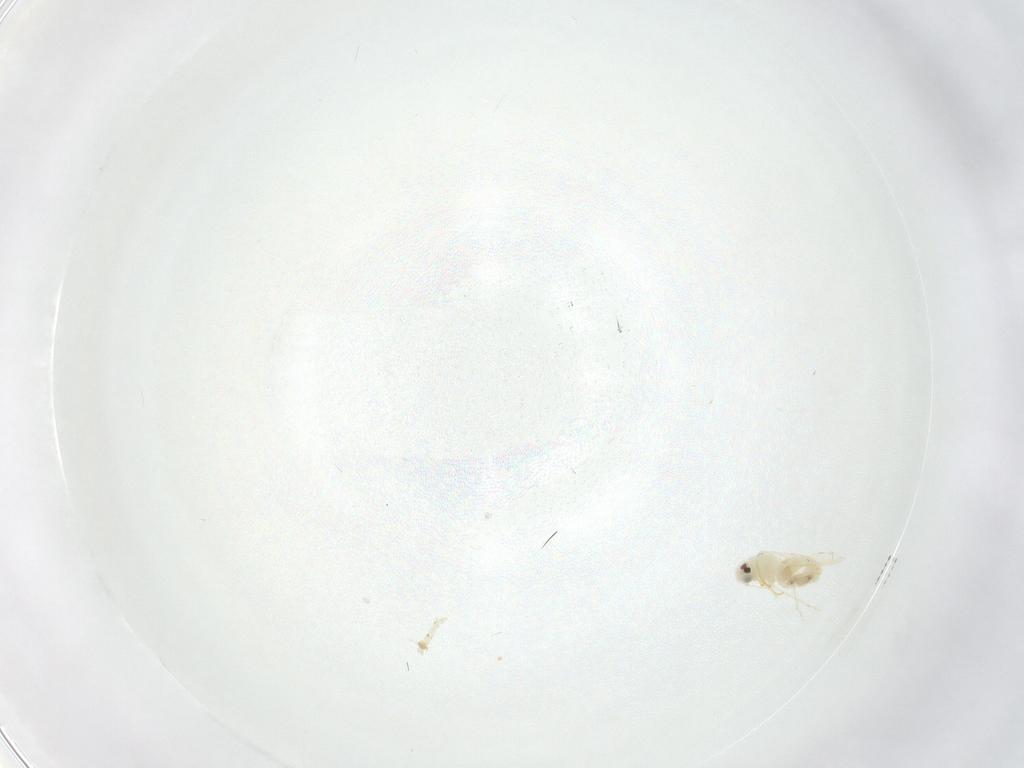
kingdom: Animalia
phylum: Arthropoda
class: Insecta
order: Hemiptera
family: Aleyrodidae
